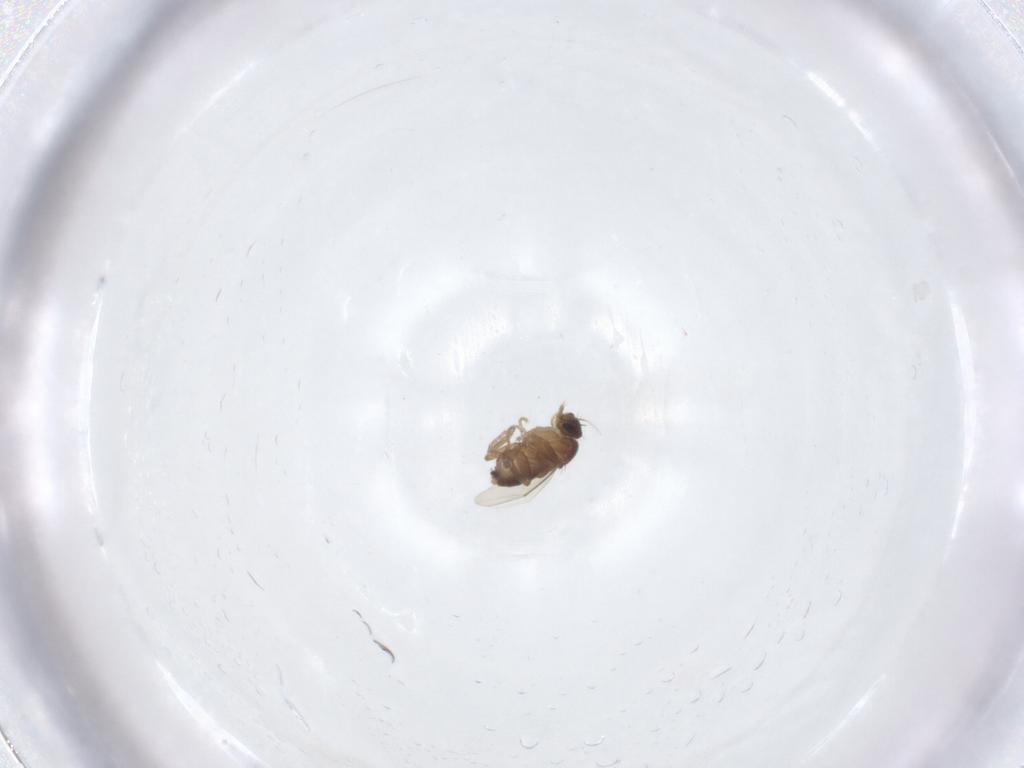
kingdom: Animalia
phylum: Arthropoda
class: Insecta
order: Diptera
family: Phoridae
